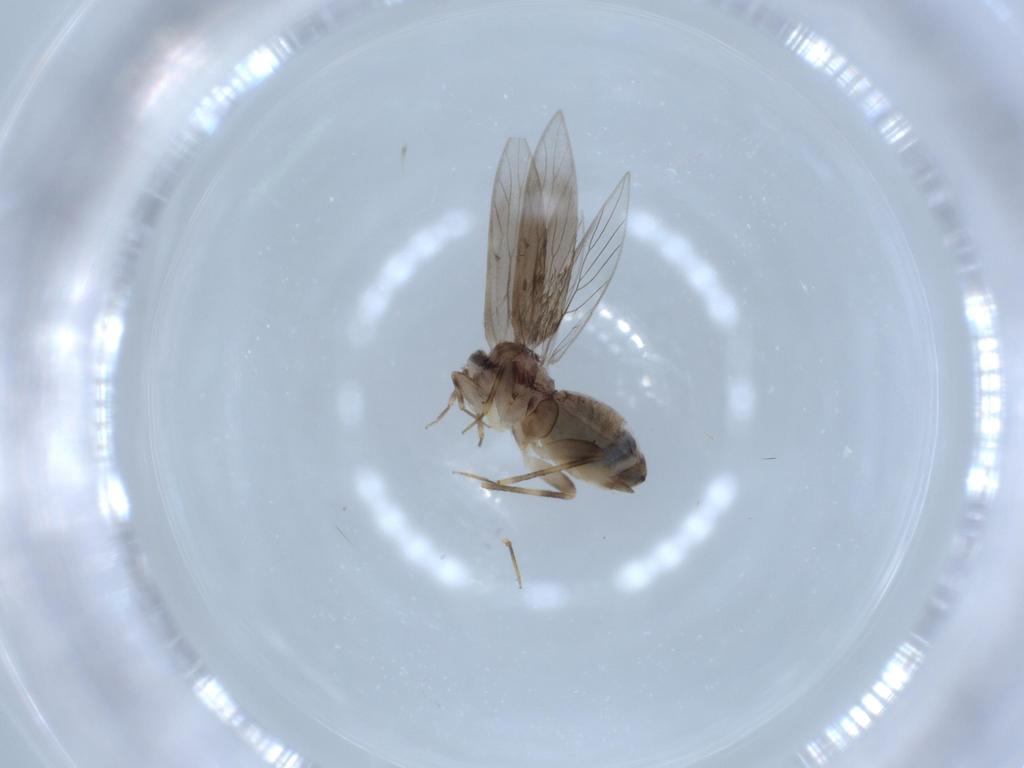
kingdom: Animalia
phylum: Arthropoda
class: Insecta
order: Psocodea
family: Lepidopsocidae
